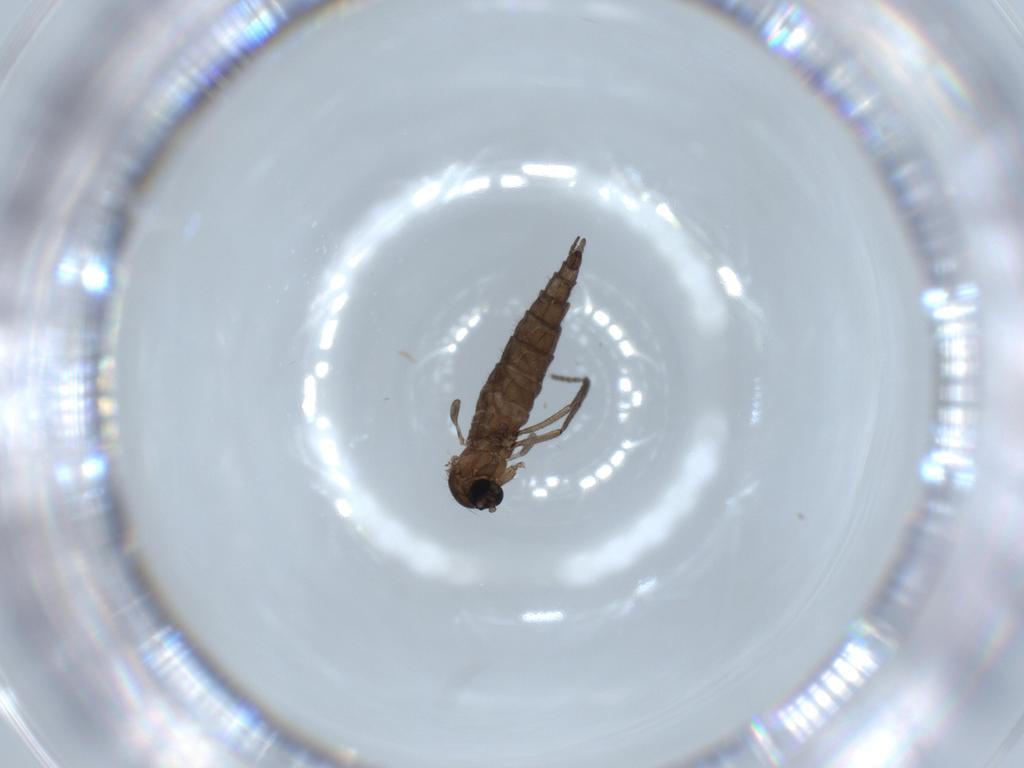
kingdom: Animalia
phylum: Arthropoda
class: Insecta
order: Diptera
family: Sciaridae
